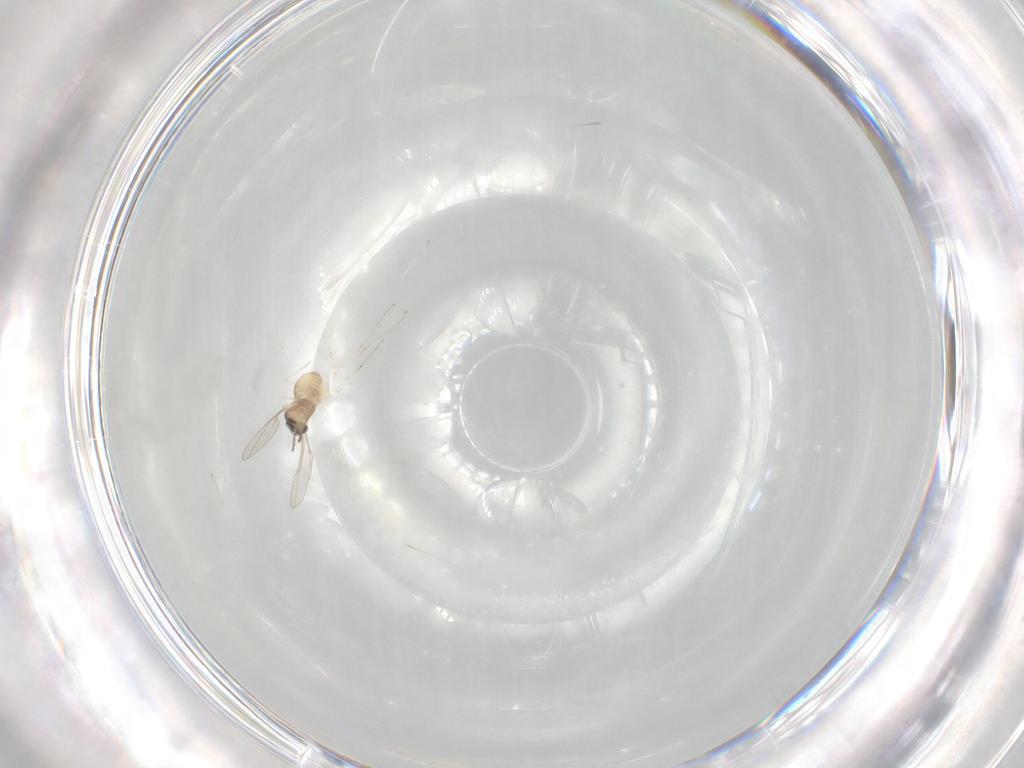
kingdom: Animalia
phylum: Arthropoda
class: Insecta
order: Diptera
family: Cecidomyiidae
